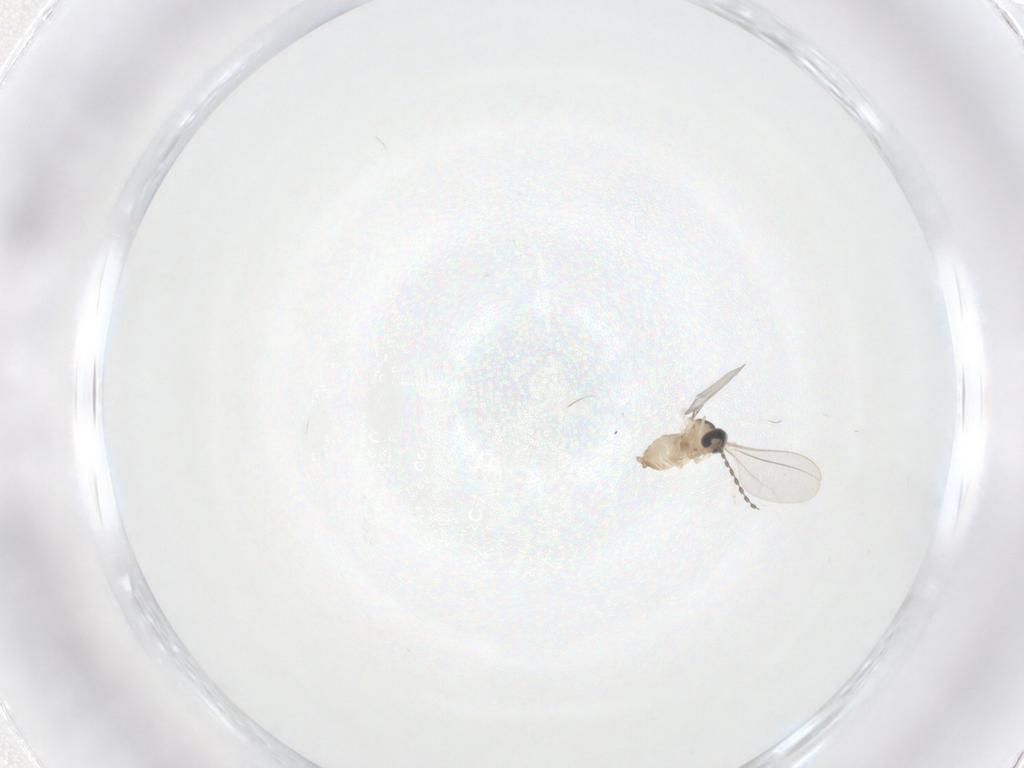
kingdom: Animalia
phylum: Arthropoda
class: Insecta
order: Diptera
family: Cecidomyiidae
